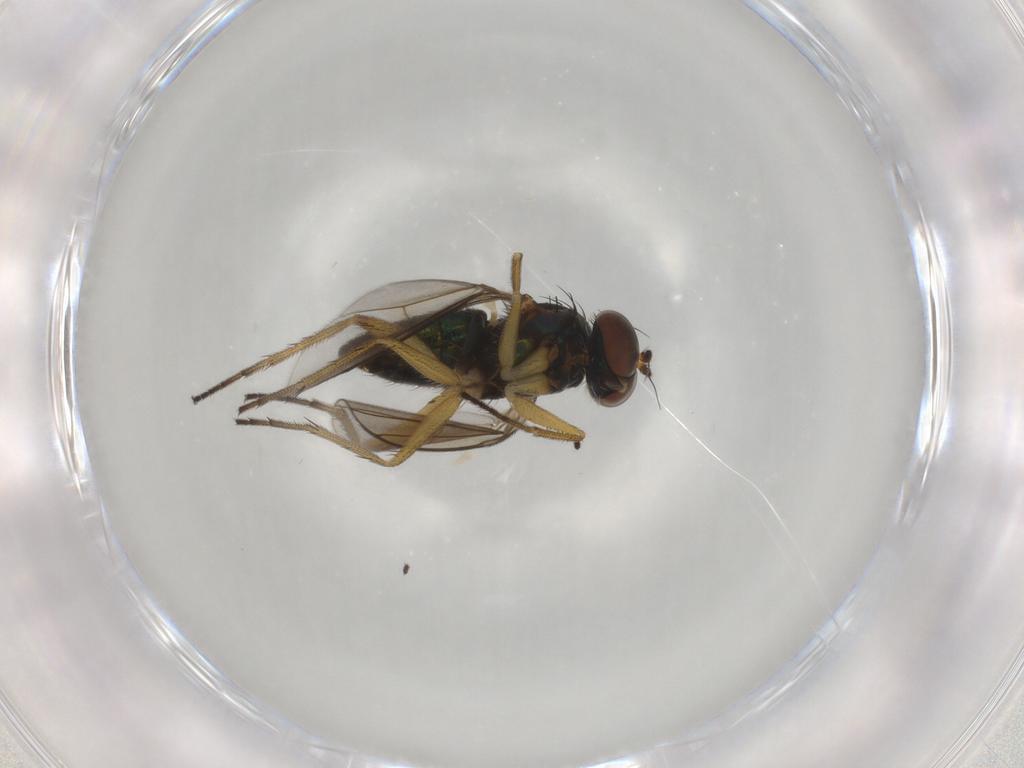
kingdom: Animalia
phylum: Arthropoda
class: Insecta
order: Diptera
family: Dolichopodidae
